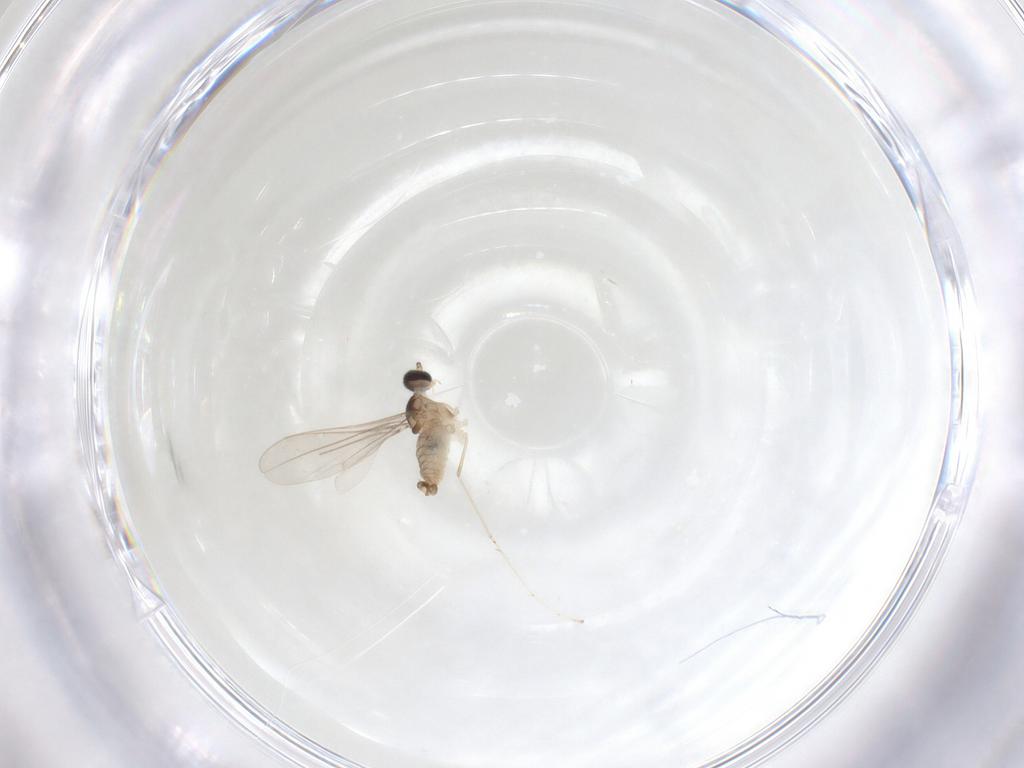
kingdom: Animalia
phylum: Arthropoda
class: Insecta
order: Diptera
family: Cecidomyiidae
